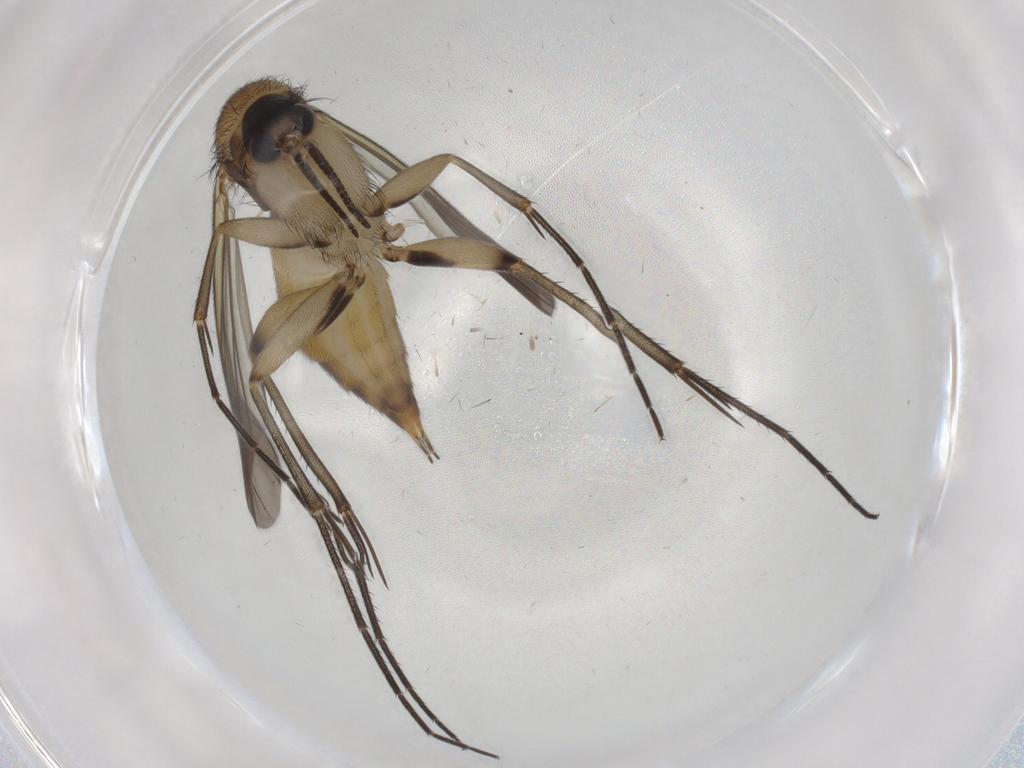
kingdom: Animalia
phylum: Arthropoda
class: Insecta
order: Diptera
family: Mycetophilidae
